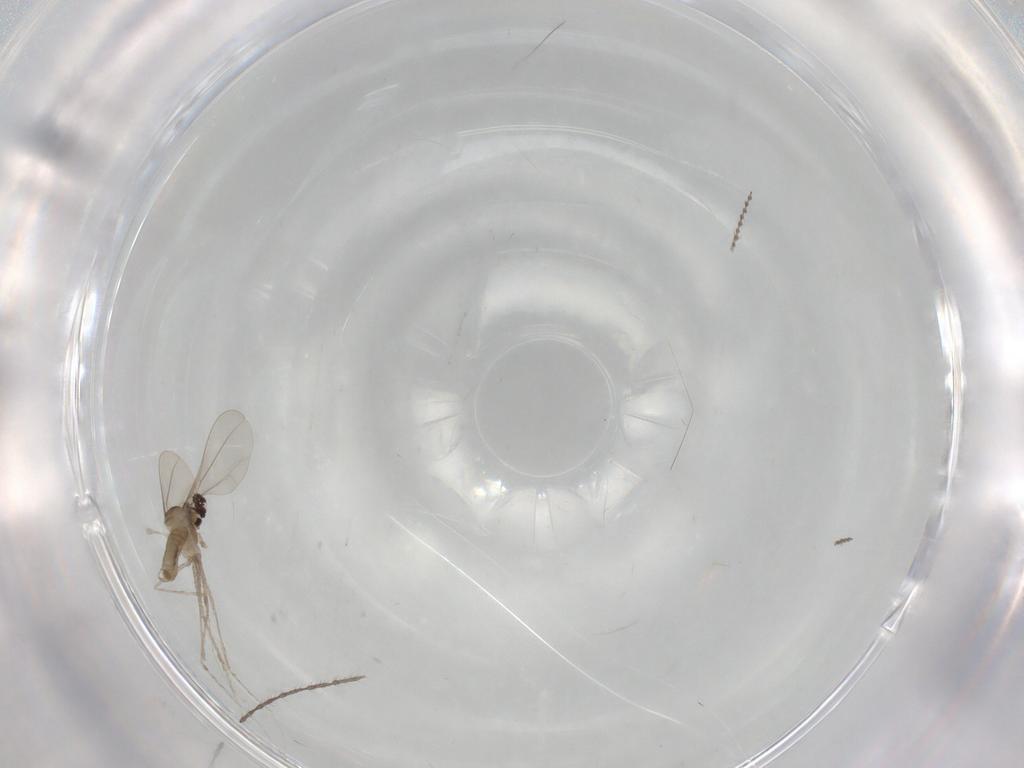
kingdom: Animalia
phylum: Arthropoda
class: Insecta
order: Diptera
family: Cecidomyiidae
